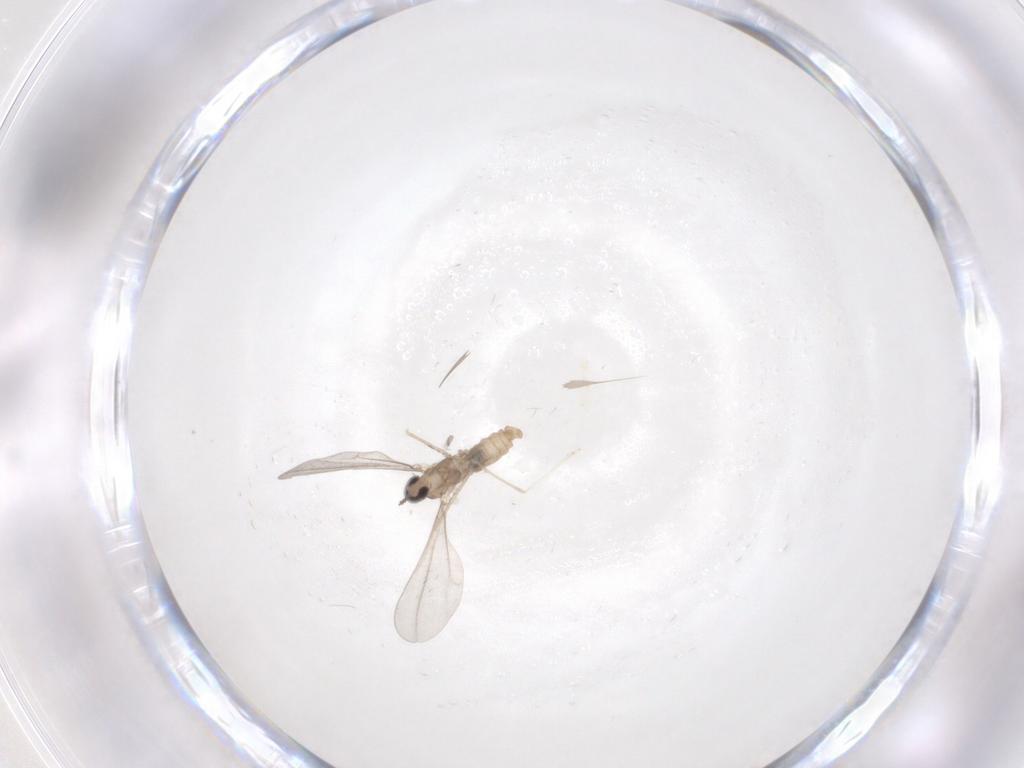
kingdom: Animalia
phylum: Arthropoda
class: Insecta
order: Diptera
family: Cecidomyiidae
